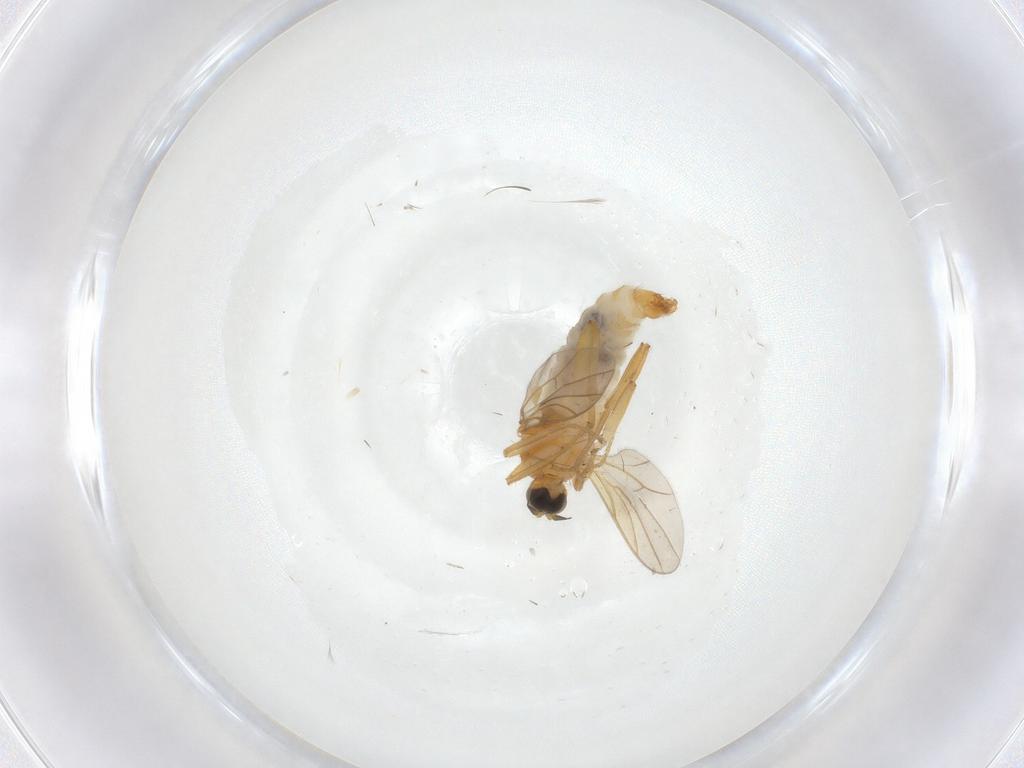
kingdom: Animalia
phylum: Arthropoda
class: Insecta
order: Diptera
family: Hybotidae
